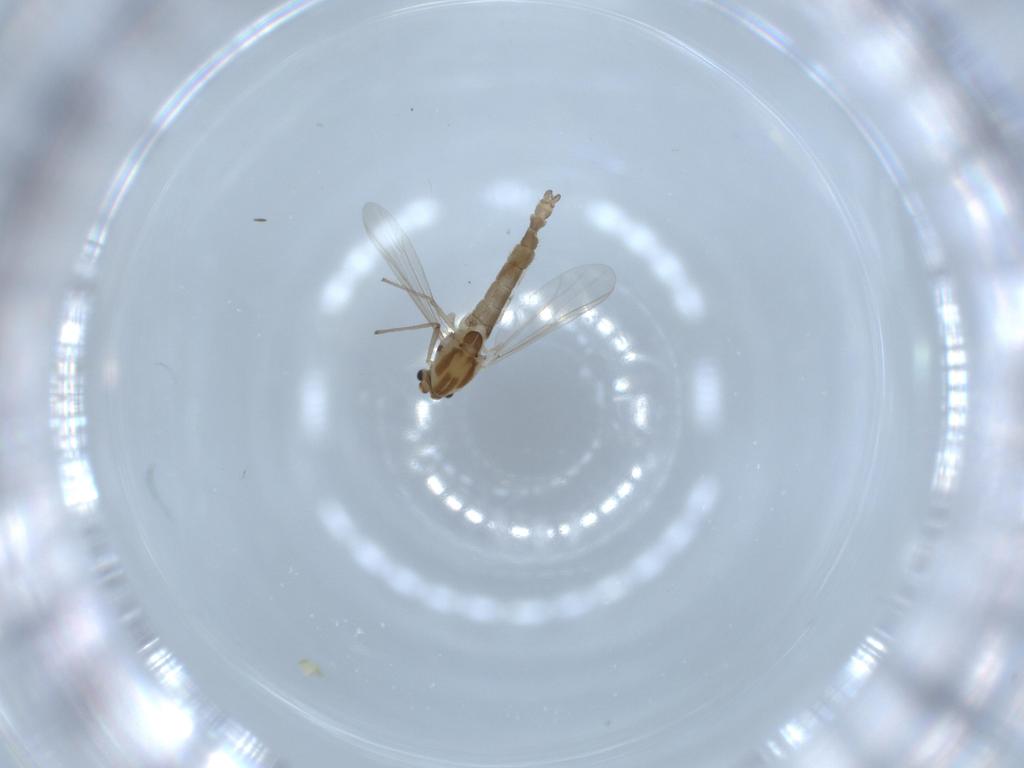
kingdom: Animalia
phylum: Arthropoda
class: Insecta
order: Diptera
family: Chironomidae
